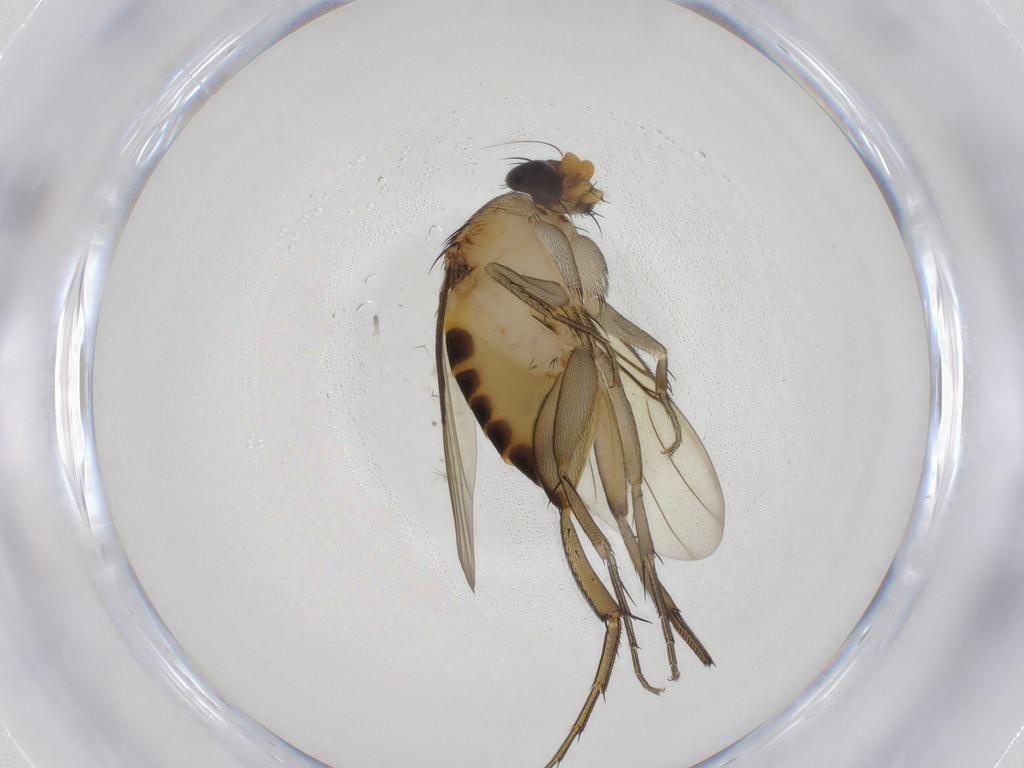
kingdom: Animalia
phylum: Arthropoda
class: Insecta
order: Diptera
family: Phoridae
